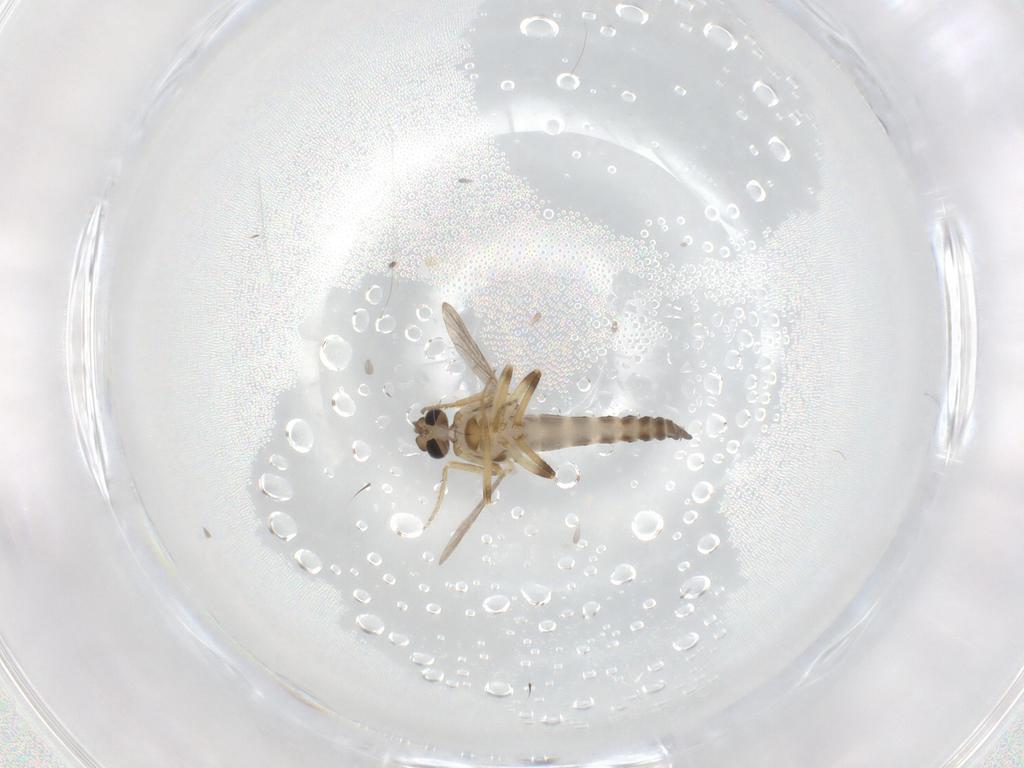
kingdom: Animalia
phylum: Arthropoda
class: Insecta
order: Diptera
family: Ceratopogonidae
